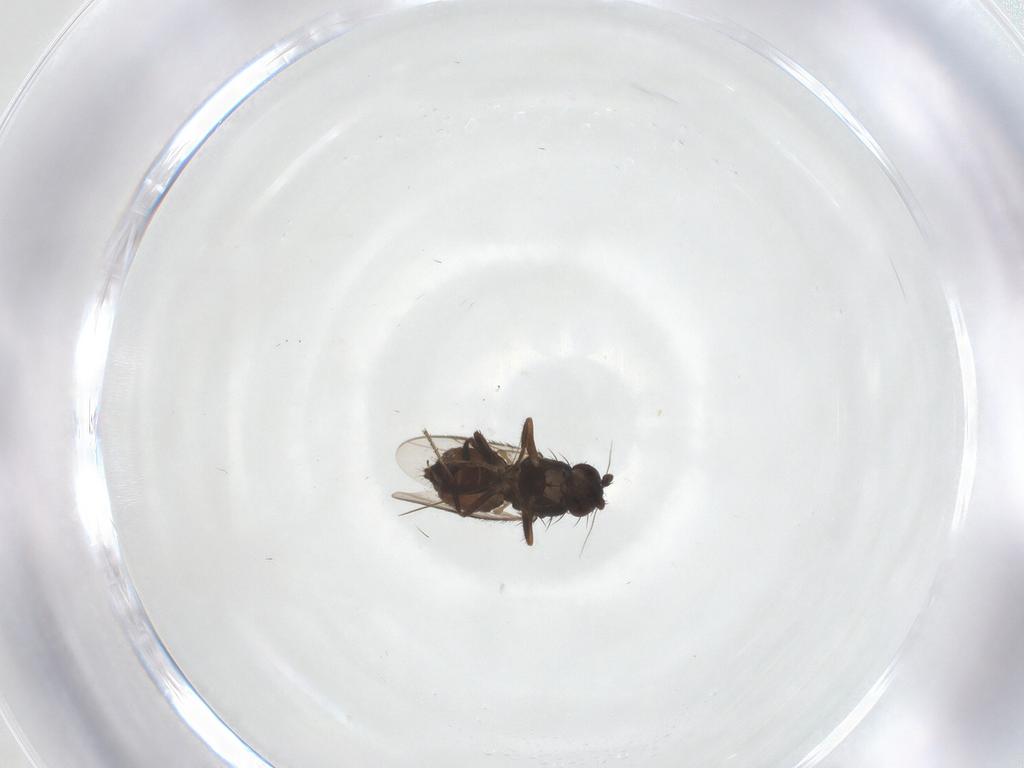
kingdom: Animalia
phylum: Arthropoda
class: Insecta
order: Diptera
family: Sphaeroceridae
